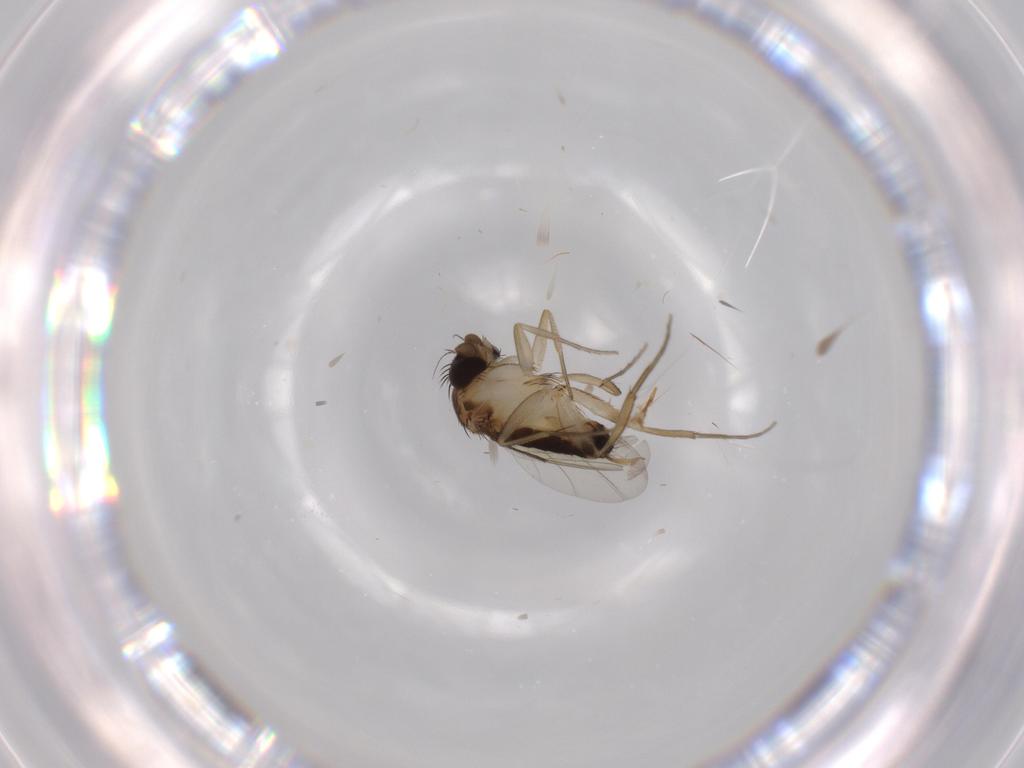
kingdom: Animalia
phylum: Arthropoda
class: Insecta
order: Diptera
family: Phoridae
